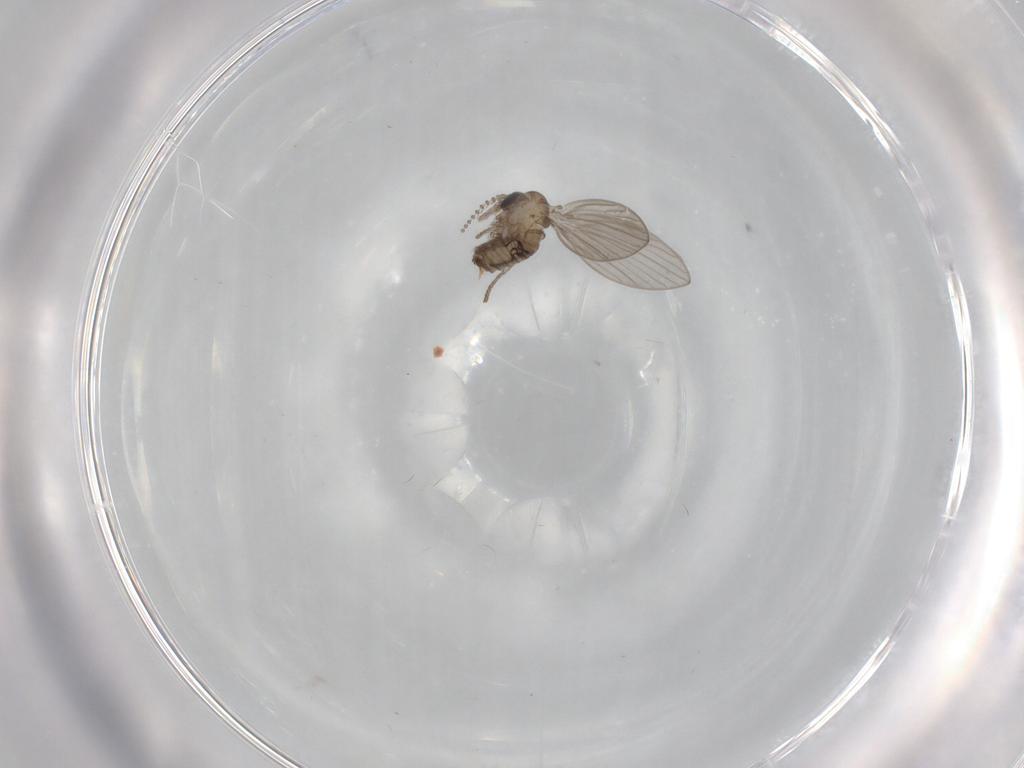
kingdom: Animalia
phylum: Arthropoda
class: Insecta
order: Diptera
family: Psychodidae
